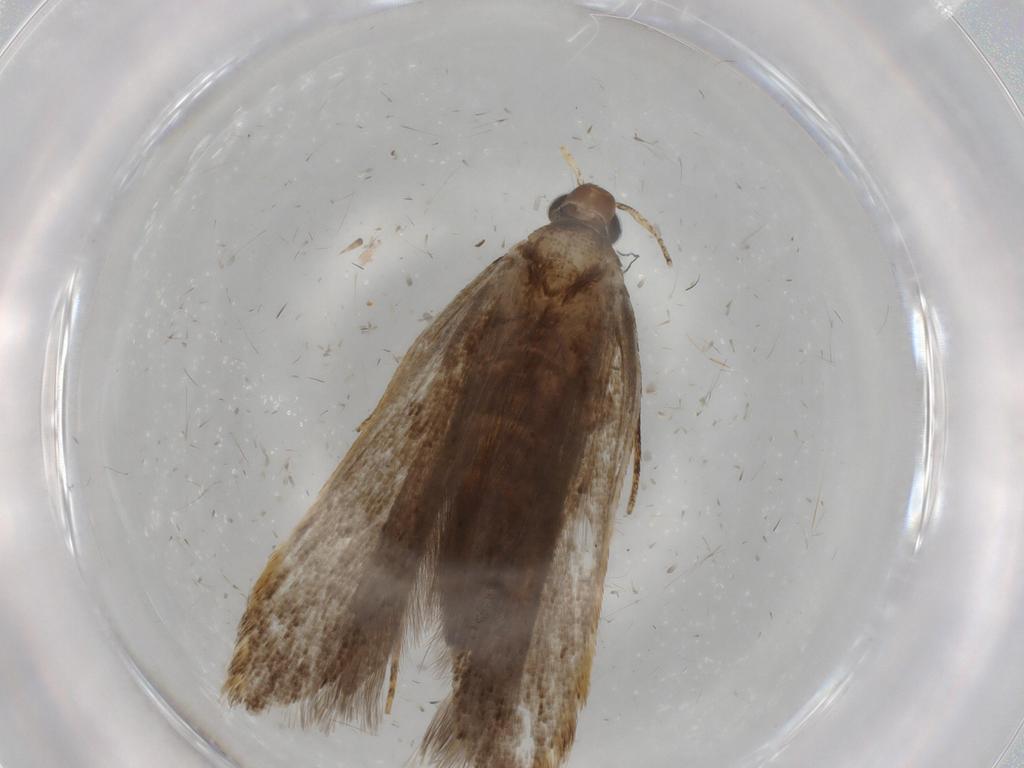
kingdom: Animalia
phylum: Arthropoda
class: Insecta
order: Lepidoptera
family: Gelechiidae
